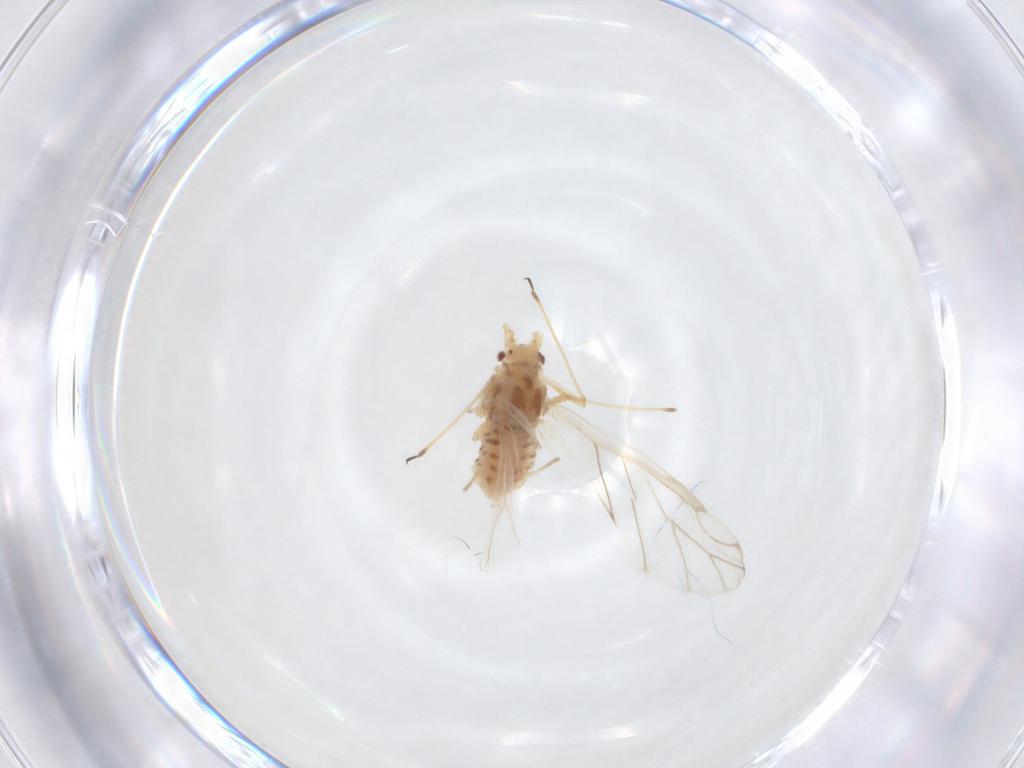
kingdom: Animalia
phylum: Arthropoda
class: Insecta
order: Hemiptera
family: Aphididae
